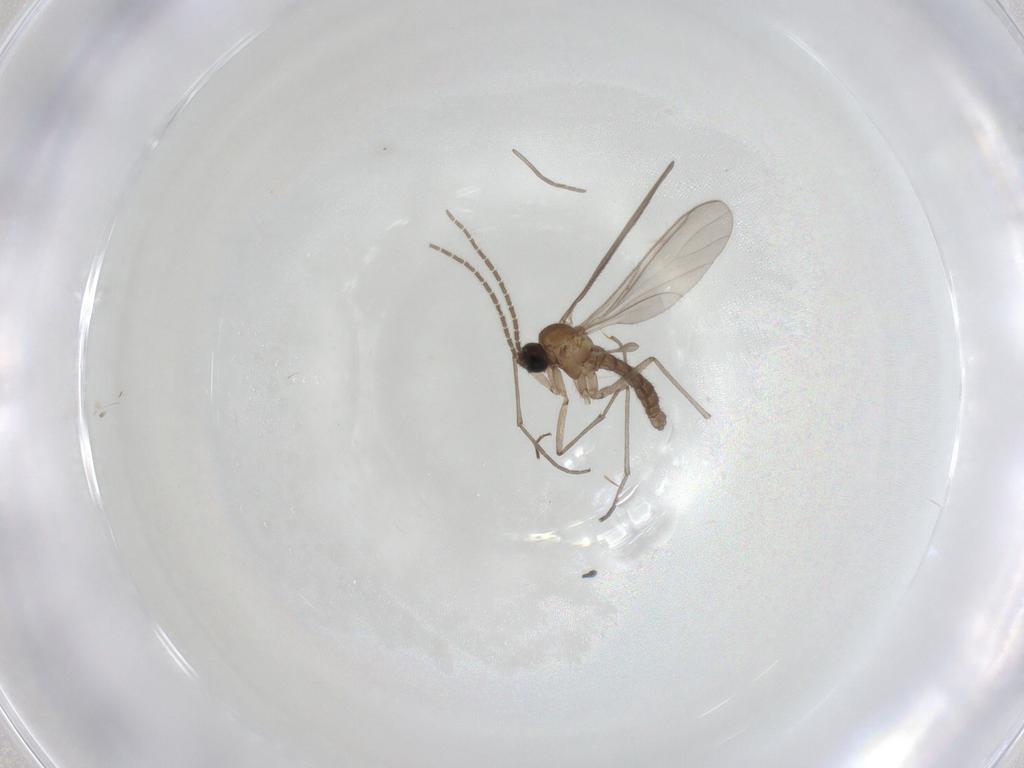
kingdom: Animalia
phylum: Arthropoda
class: Insecta
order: Diptera
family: Phoridae
